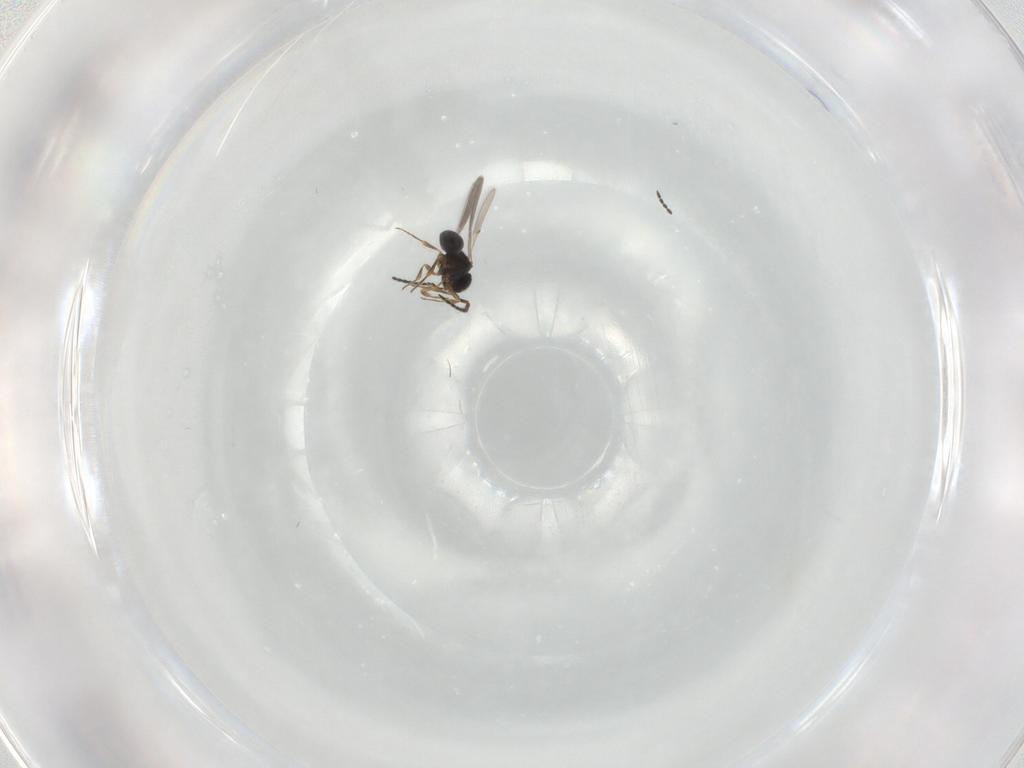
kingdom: Animalia
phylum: Arthropoda
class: Insecta
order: Hymenoptera
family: Scelionidae
